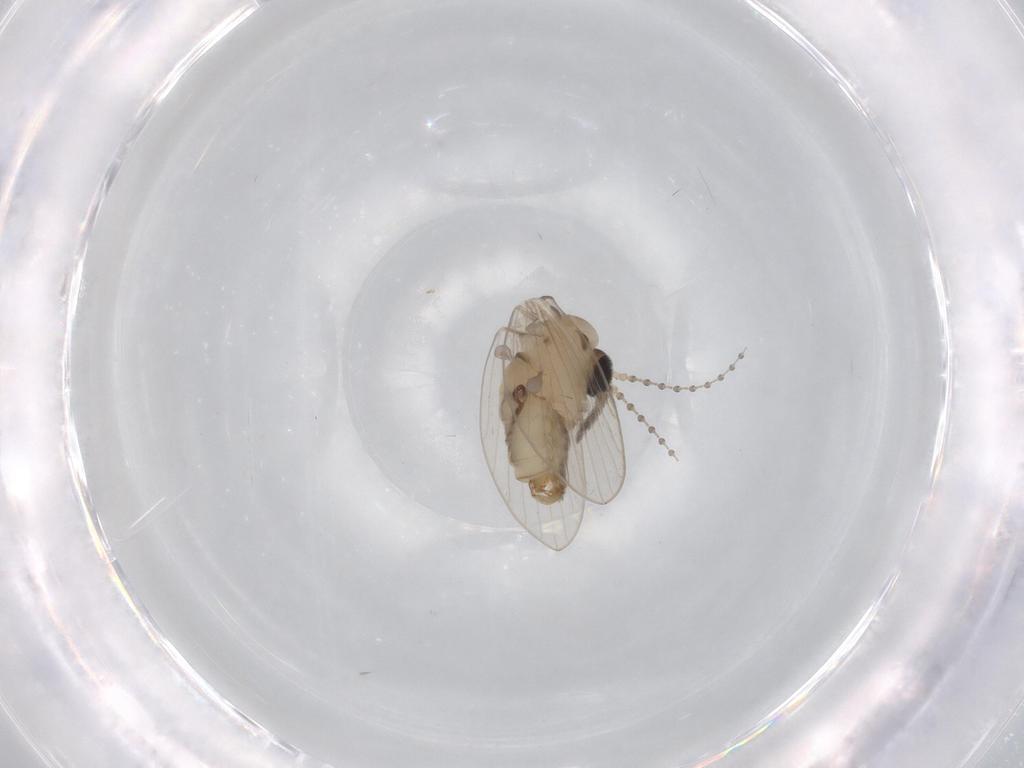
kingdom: Animalia
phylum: Arthropoda
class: Insecta
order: Diptera
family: Psychodidae
